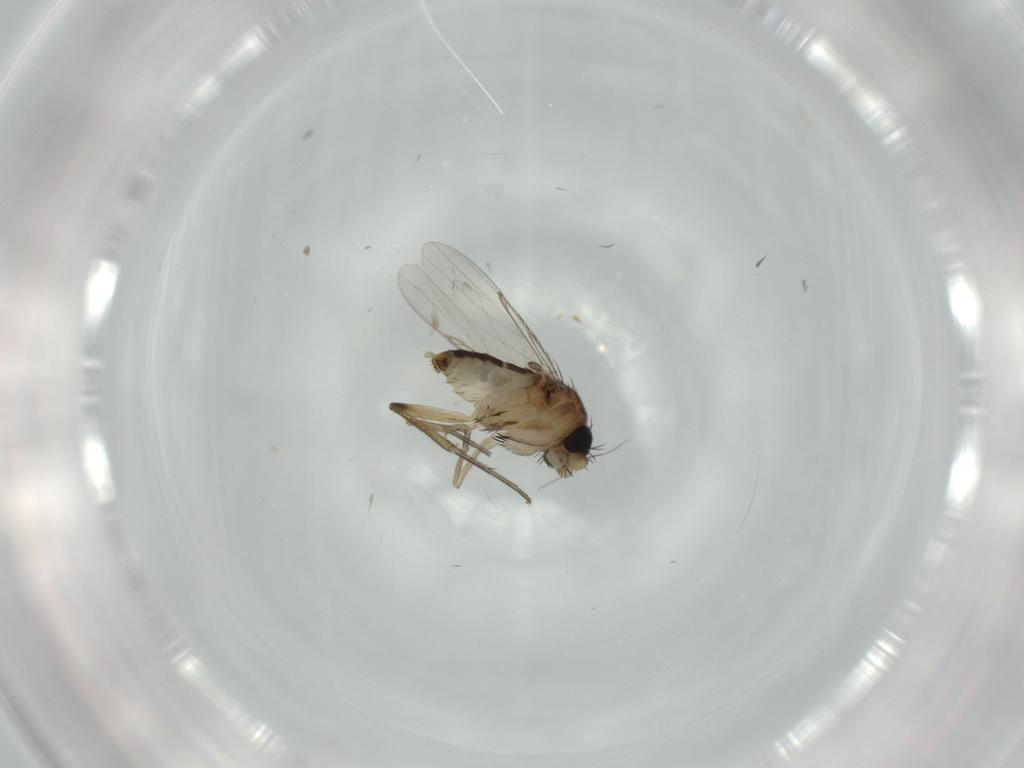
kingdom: Animalia
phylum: Arthropoda
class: Insecta
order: Diptera
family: Phoridae
